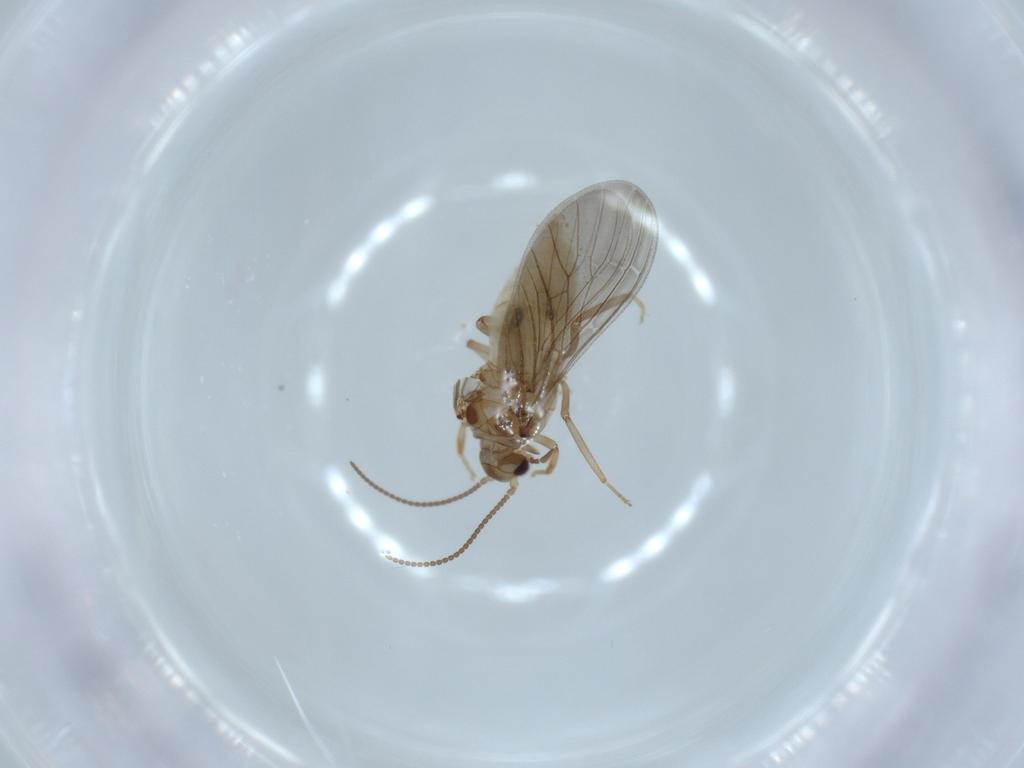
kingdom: Animalia
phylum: Arthropoda
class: Insecta
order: Neuroptera
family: Coniopterygidae
